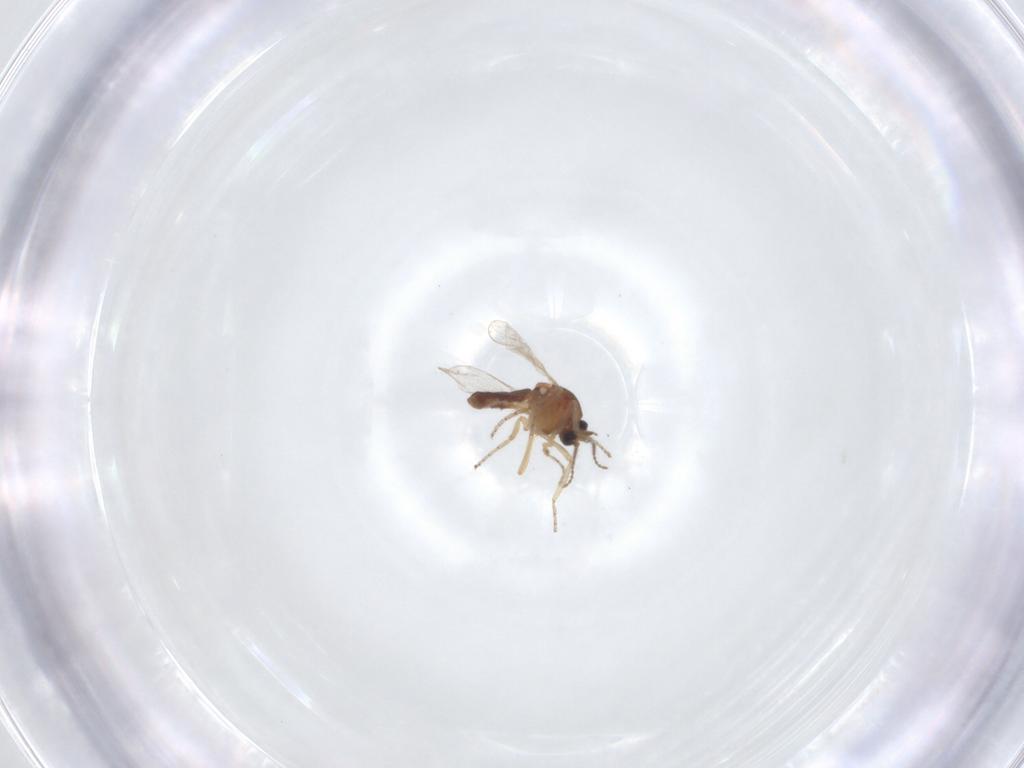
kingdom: Animalia
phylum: Arthropoda
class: Insecta
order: Diptera
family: Ceratopogonidae
